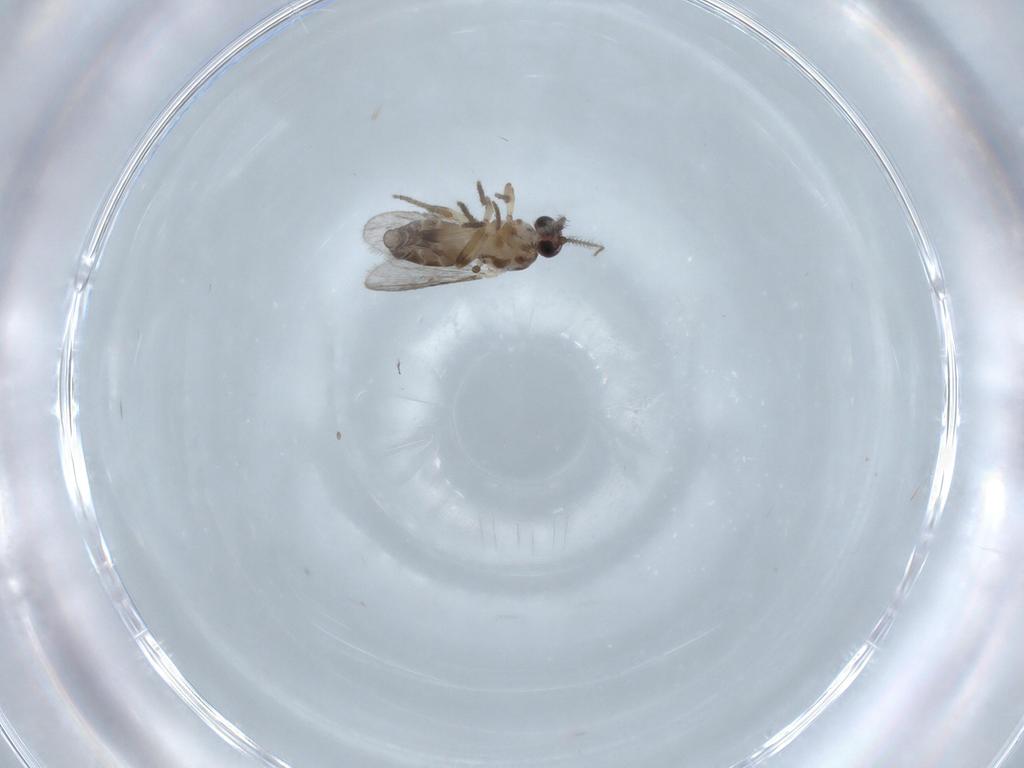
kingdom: Animalia
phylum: Arthropoda
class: Insecta
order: Diptera
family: Ceratopogonidae
